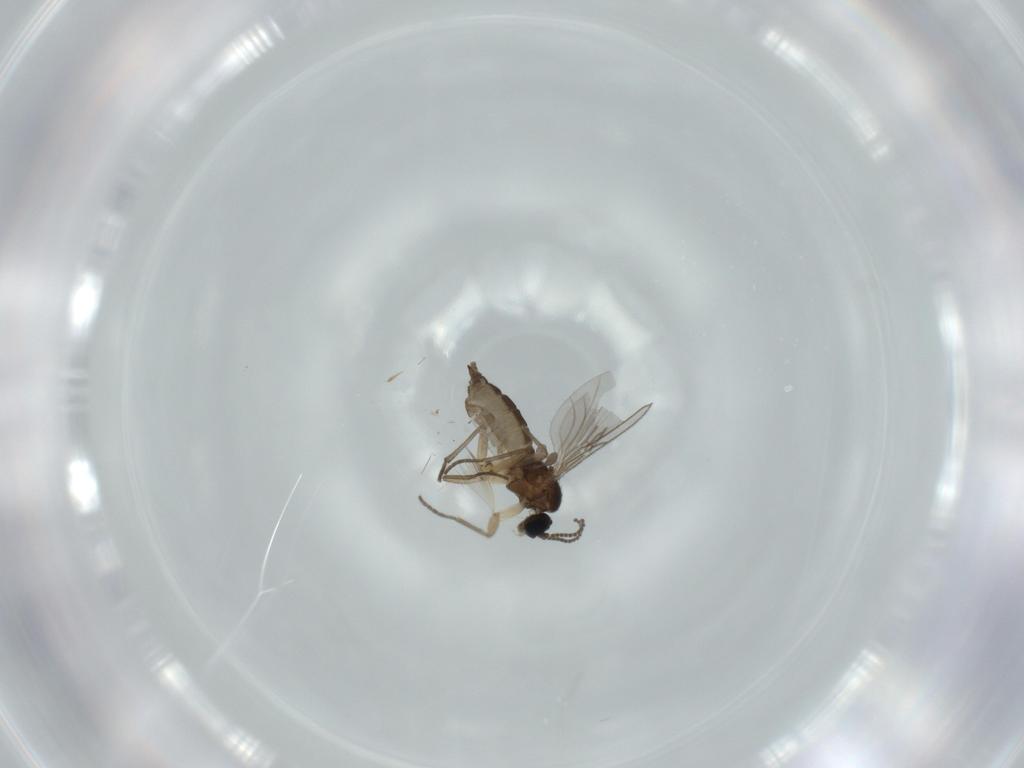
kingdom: Animalia
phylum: Arthropoda
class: Insecta
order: Diptera
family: Sciaridae
